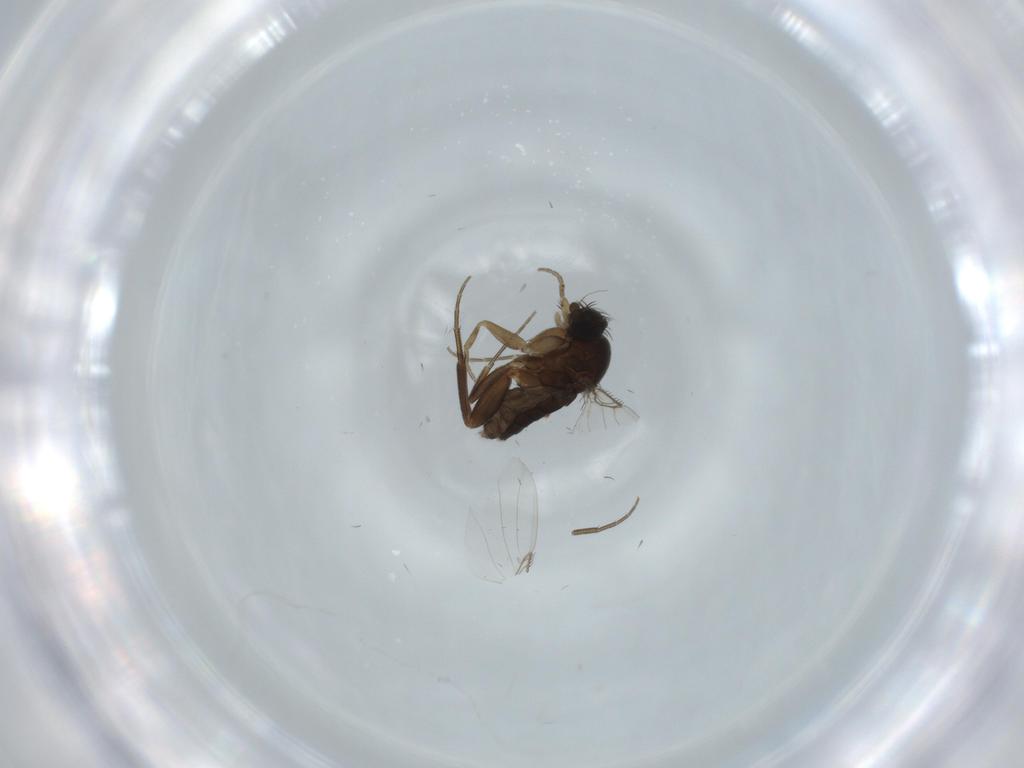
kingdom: Animalia
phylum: Arthropoda
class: Insecta
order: Diptera
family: Phoridae
